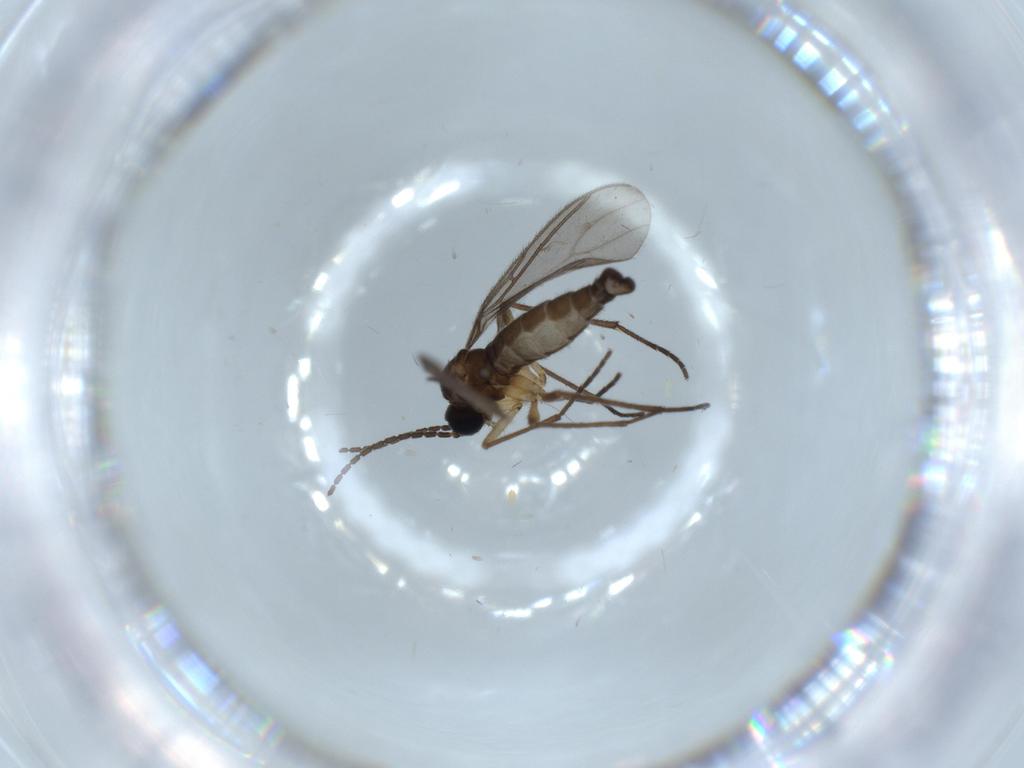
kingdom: Animalia
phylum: Arthropoda
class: Insecta
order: Diptera
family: Sciaridae
